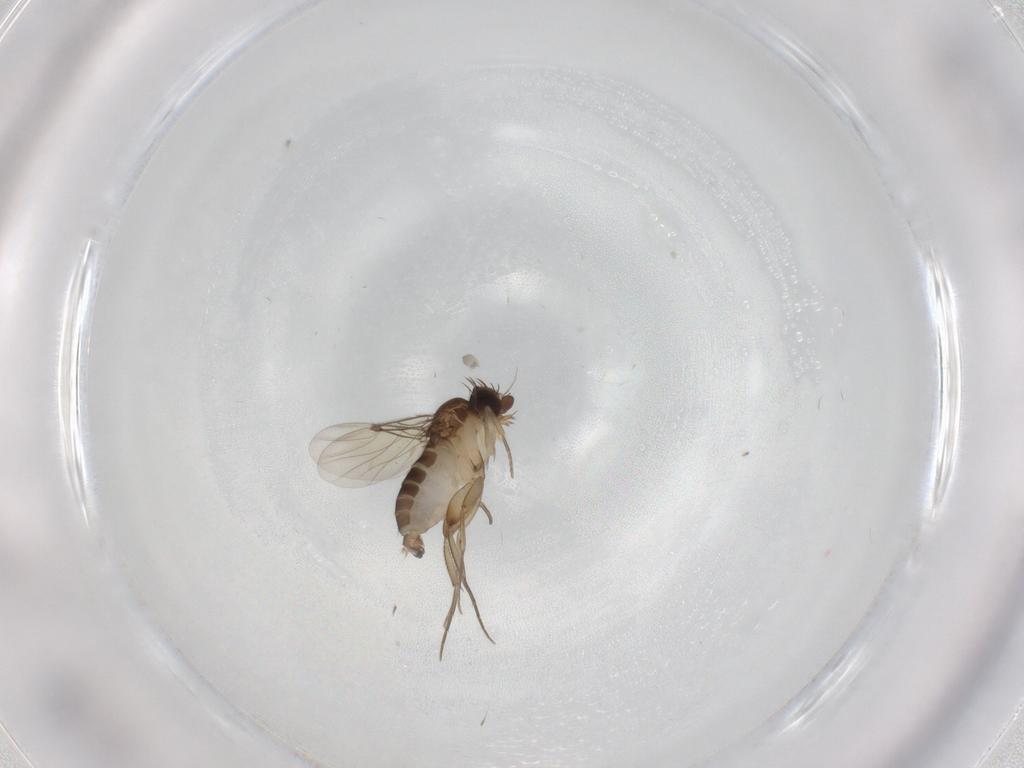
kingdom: Animalia
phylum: Arthropoda
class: Insecta
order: Diptera
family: Phoridae
